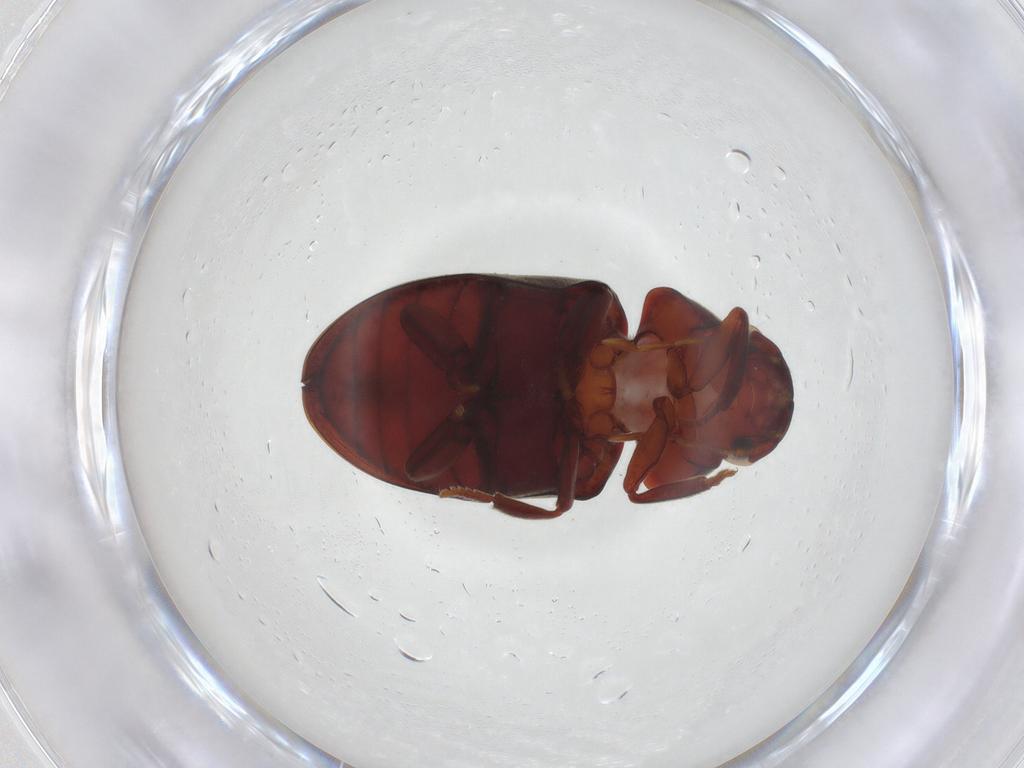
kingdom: Animalia
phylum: Arthropoda
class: Insecta
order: Coleoptera
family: Ptinidae
